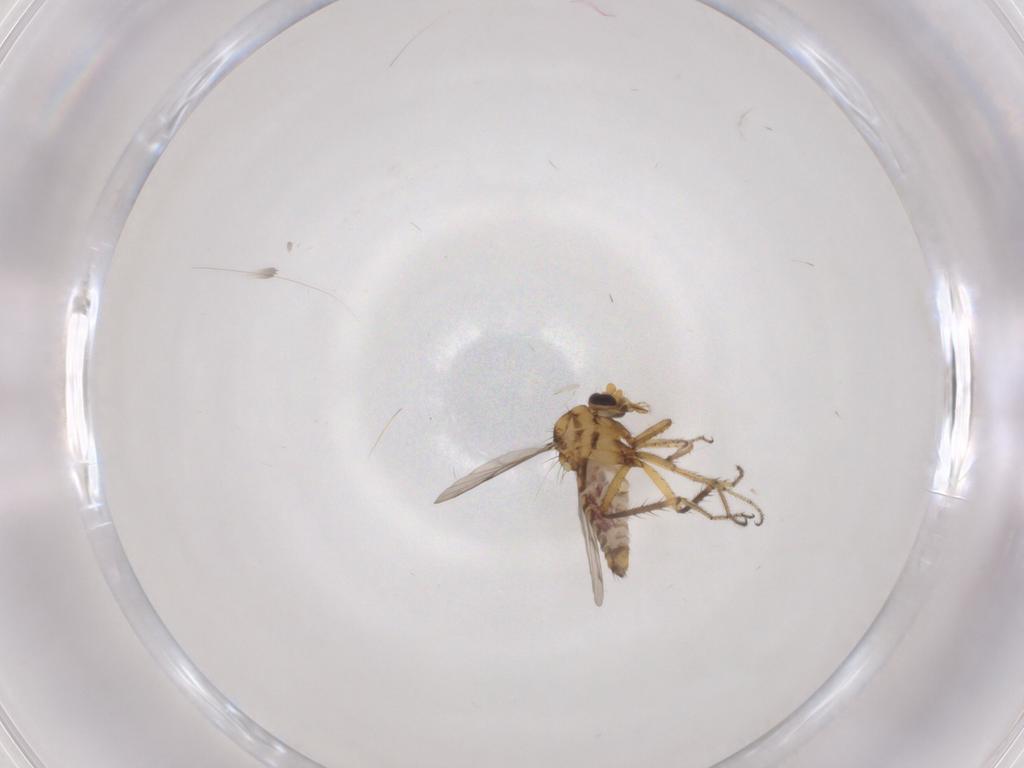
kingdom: Animalia
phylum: Arthropoda
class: Insecta
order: Diptera
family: Ceratopogonidae
